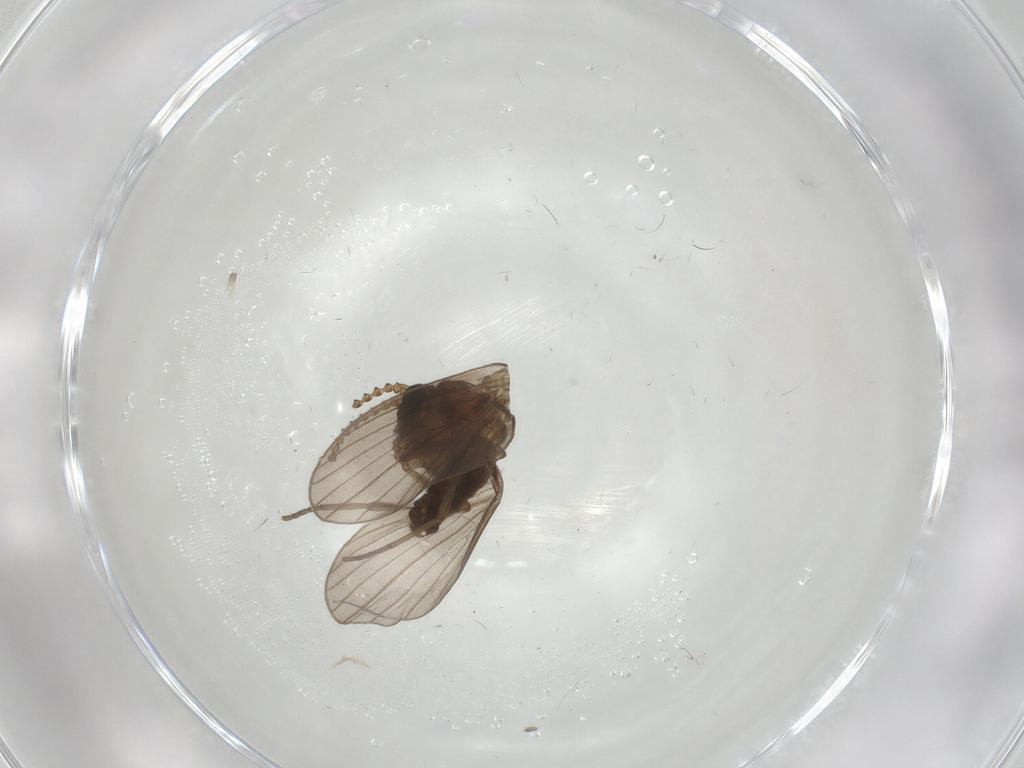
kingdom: Animalia
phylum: Arthropoda
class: Insecta
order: Diptera
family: Psychodidae
